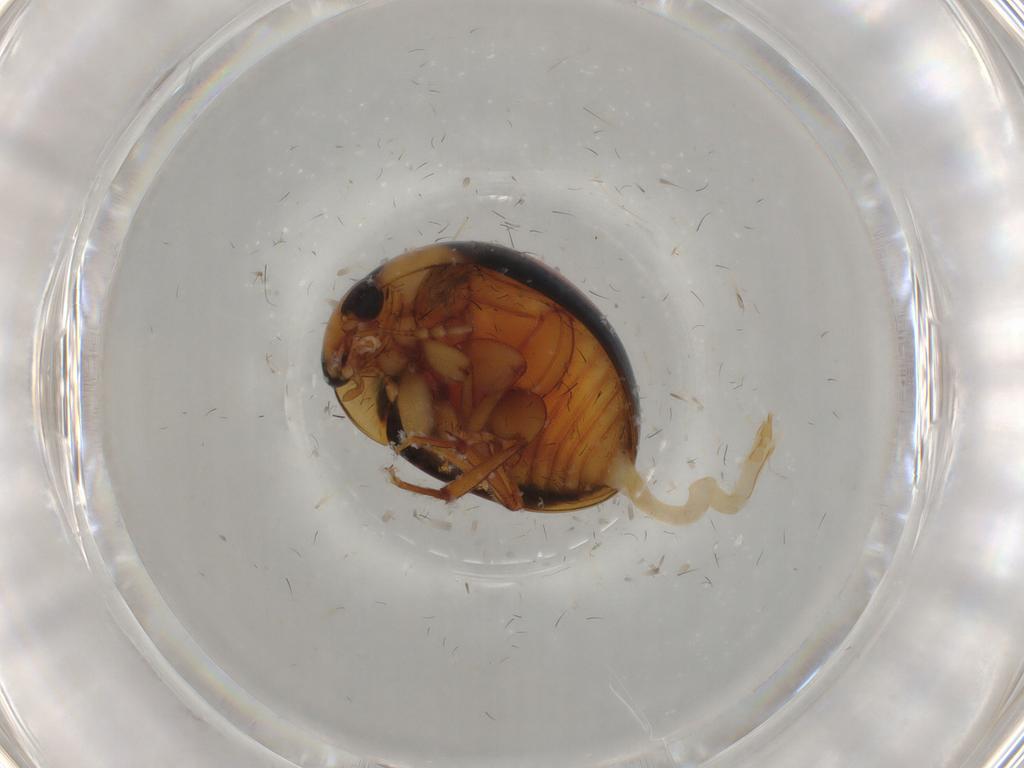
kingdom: Animalia
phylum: Arthropoda
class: Insecta
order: Coleoptera
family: Phalacridae
